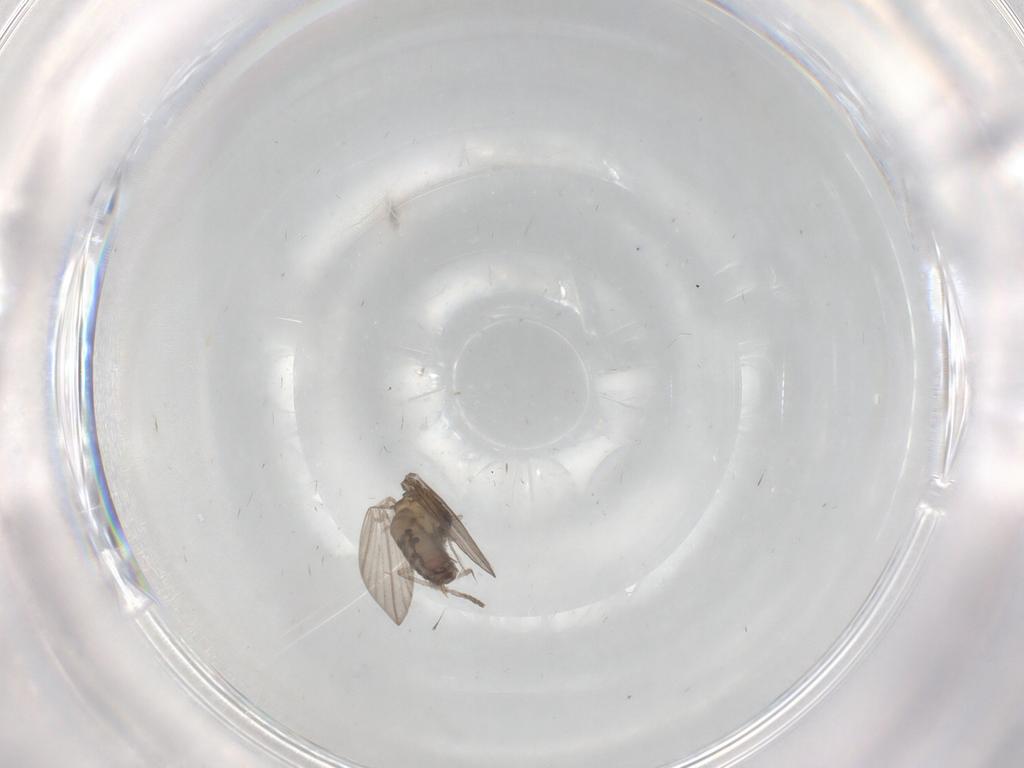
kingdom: Animalia
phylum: Arthropoda
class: Insecta
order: Diptera
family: Psychodidae
